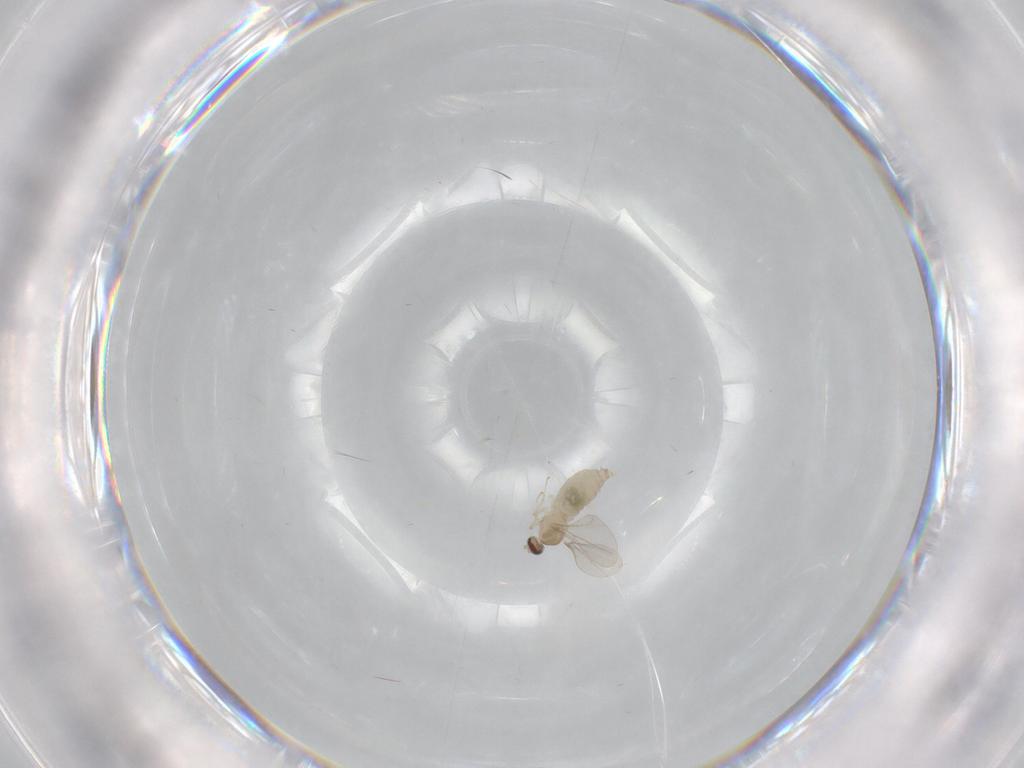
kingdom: Animalia
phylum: Arthropoda
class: Insecta
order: Diptera
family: Cecidomyiidae
